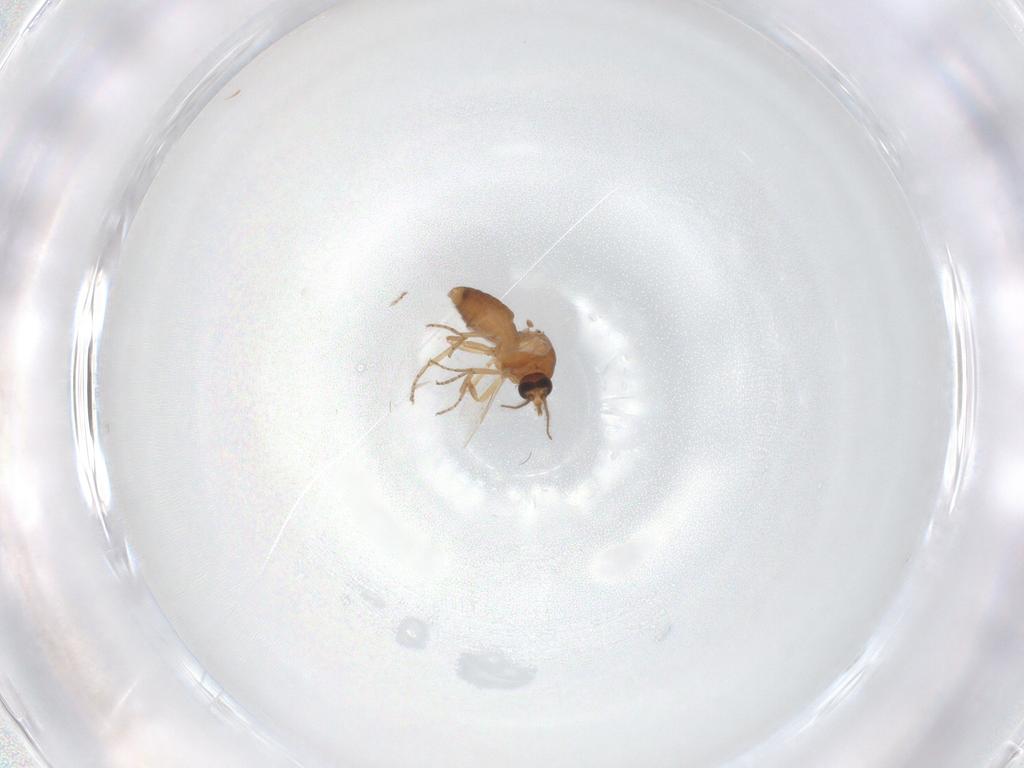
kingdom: Animalia
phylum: Arthropoda
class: Insecta
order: Diptera
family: Ceratopogonidae
